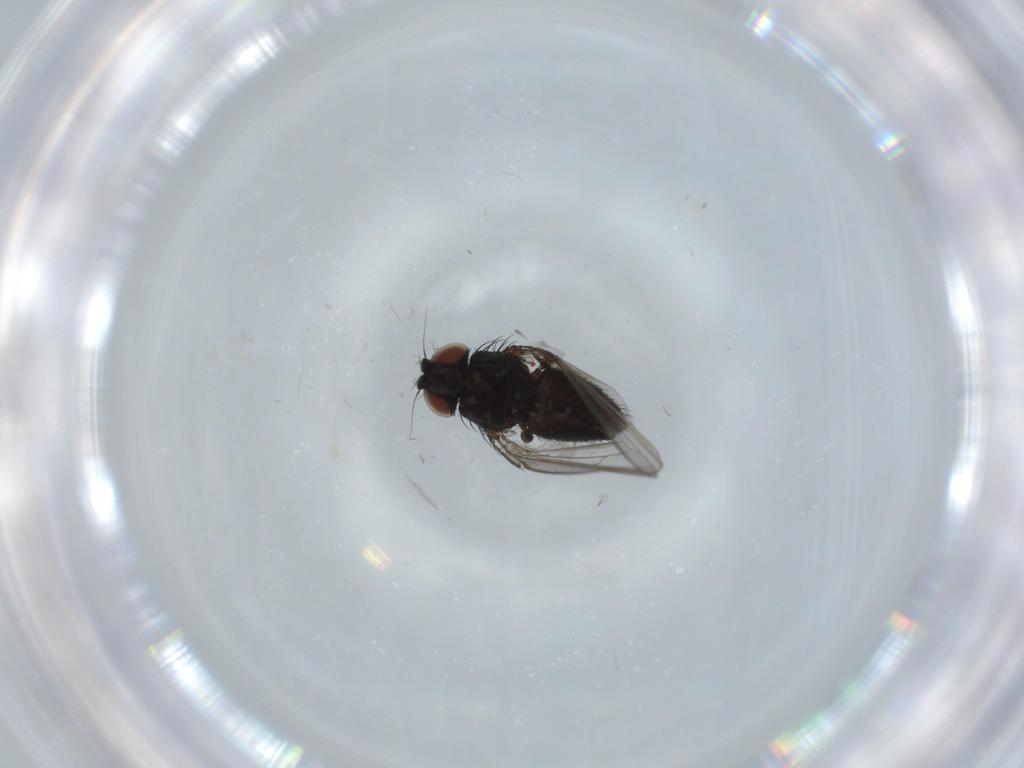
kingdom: Animalia
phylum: Arthropoda
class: Insecta
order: Diptera
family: Milichiidae
